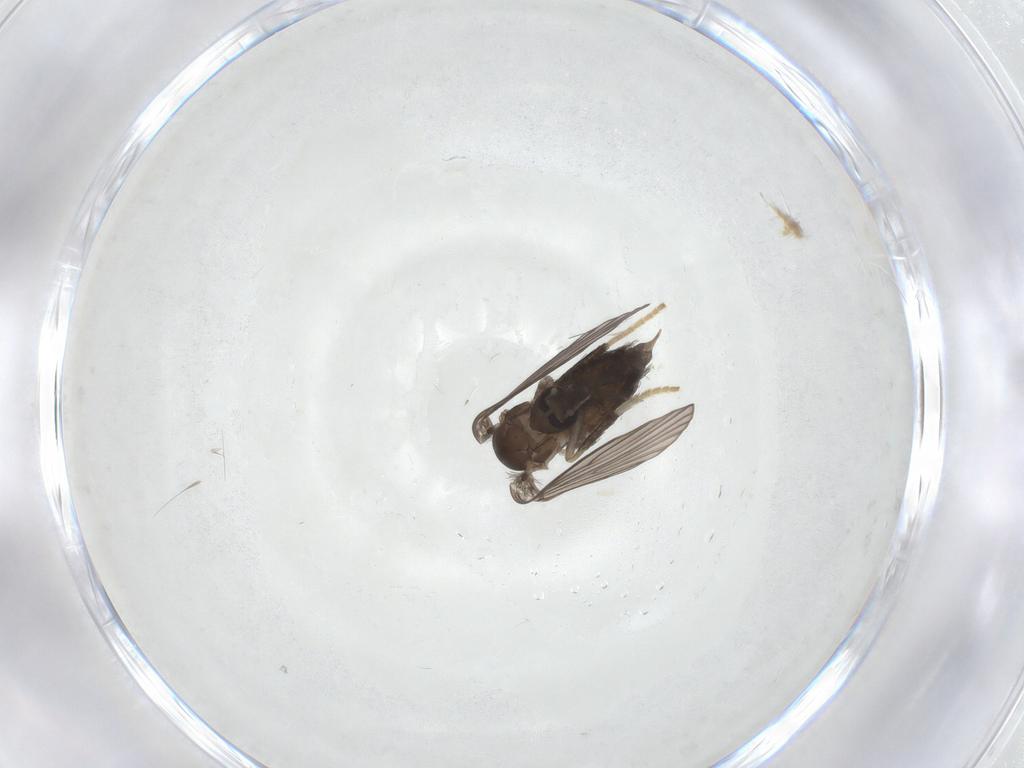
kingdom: Animalia
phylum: Arthropoda
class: Insecta
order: Diptera
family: Psychodidae
